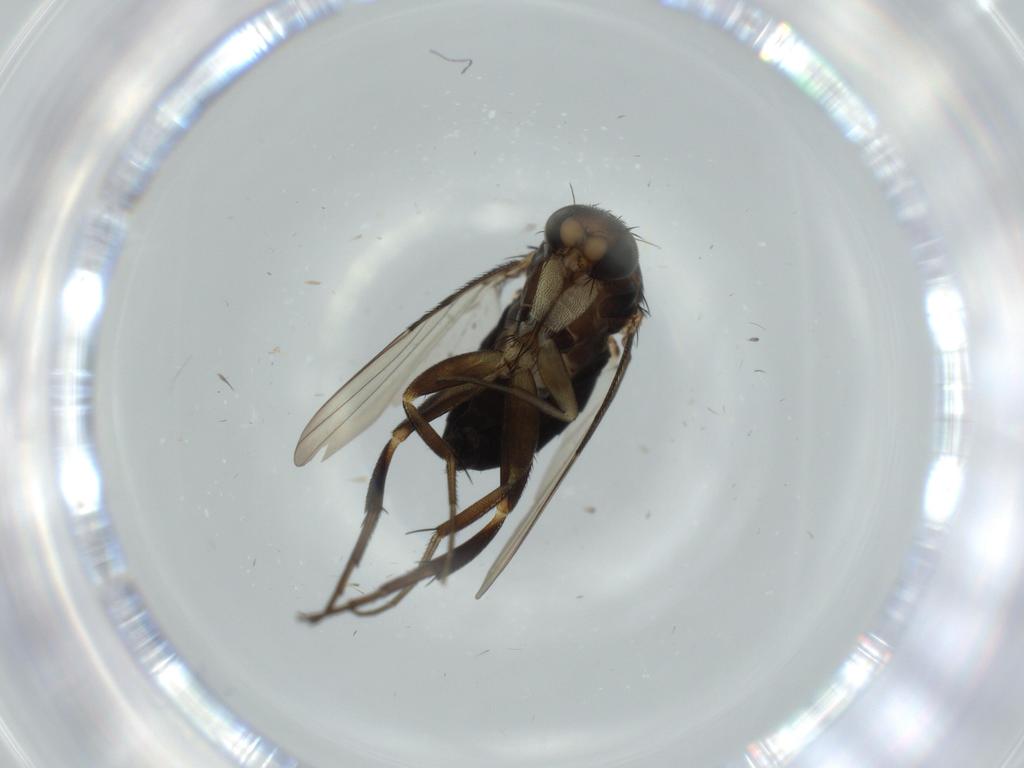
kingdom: Animalia
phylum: Arthropoda
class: Insecta
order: Diptera
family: Phoridae
